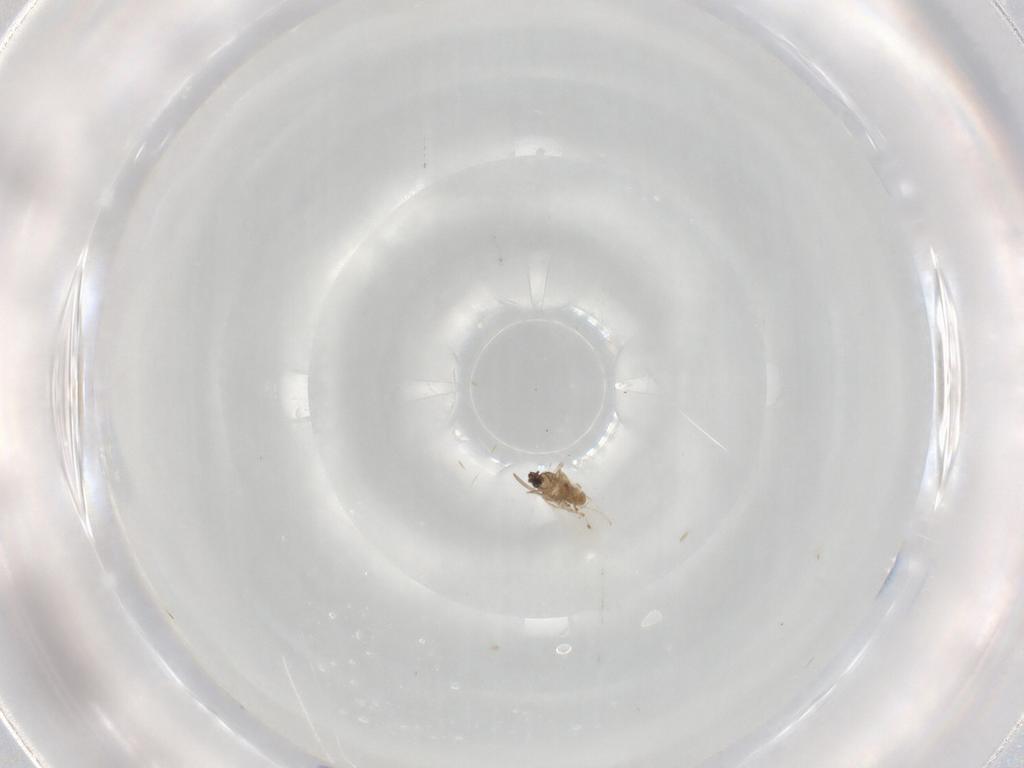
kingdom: Animalia
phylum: Arthropoda
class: Insecta
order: Diptera
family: Cecidomyiidae
